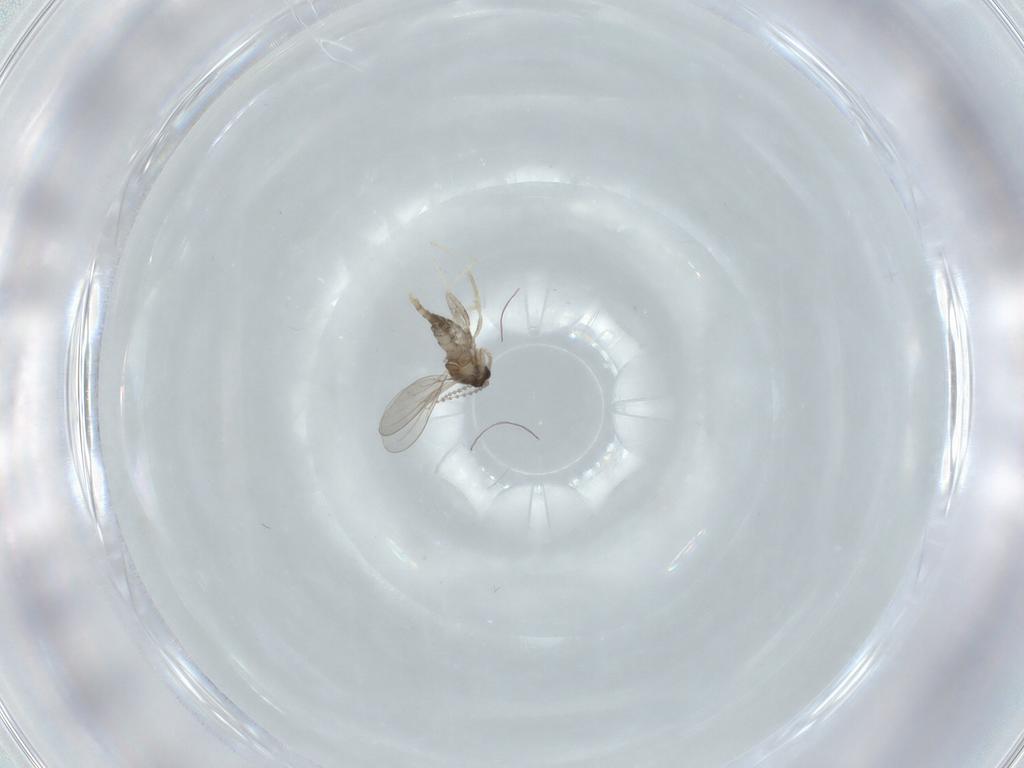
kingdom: Animalia
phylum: Arthropoda
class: Insecta
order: Diptera
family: Cecidomyiidae
